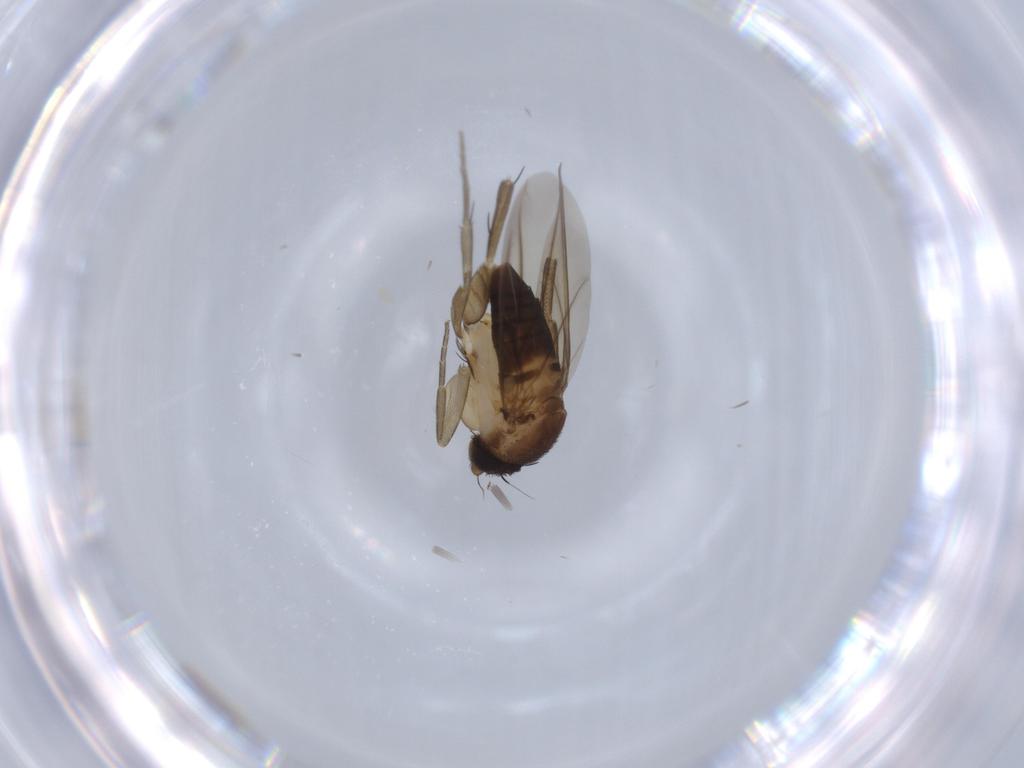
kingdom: Animalia
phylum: Arthropoda
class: Insecta
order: Diptera
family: Phoridae
